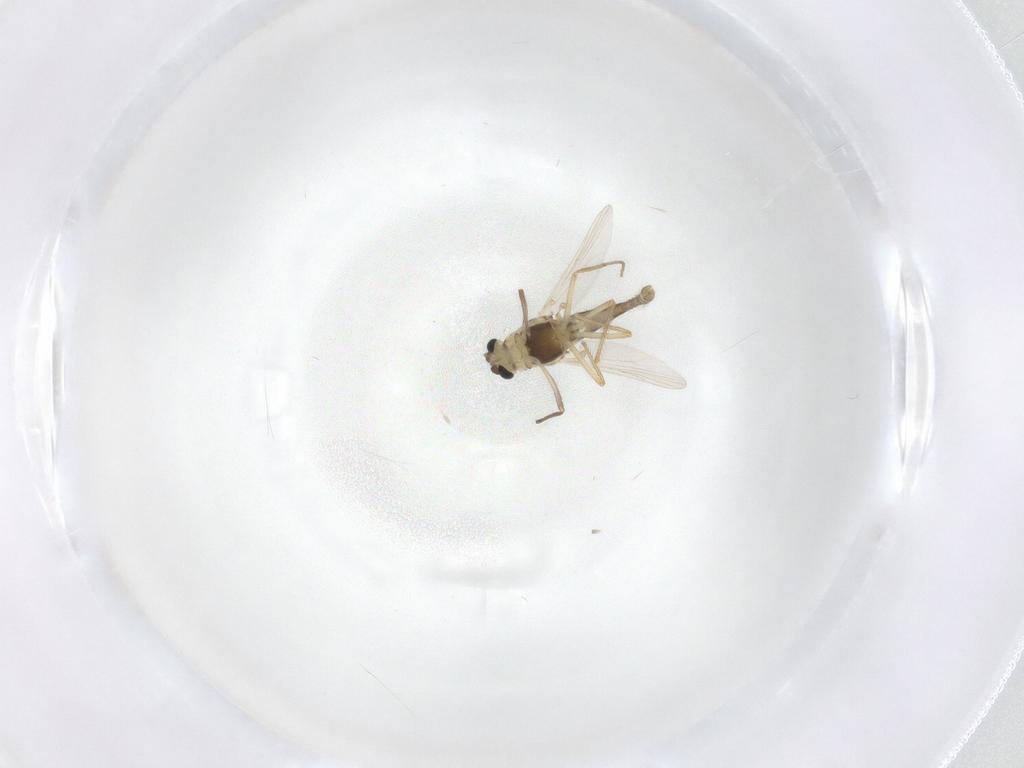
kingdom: Animalia
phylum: Arthropoda
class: Insecta
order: Diptera
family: Chironomidae
